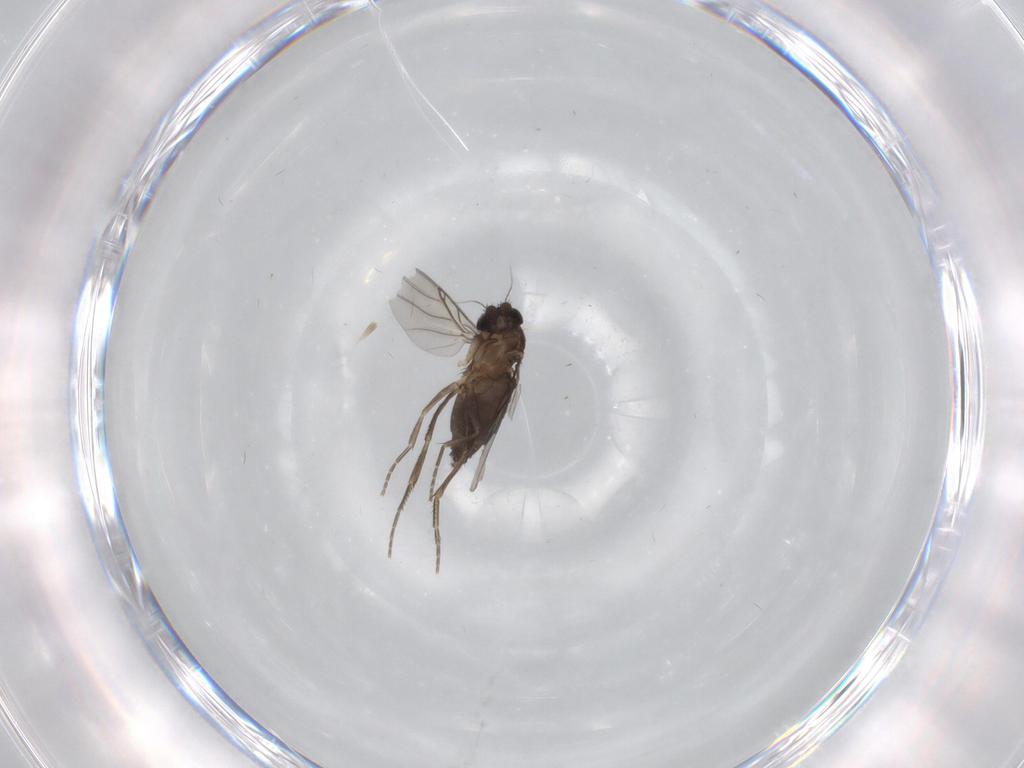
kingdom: Animalia
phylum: Arthropoda
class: Insecta
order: Diptera
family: Phoridae
